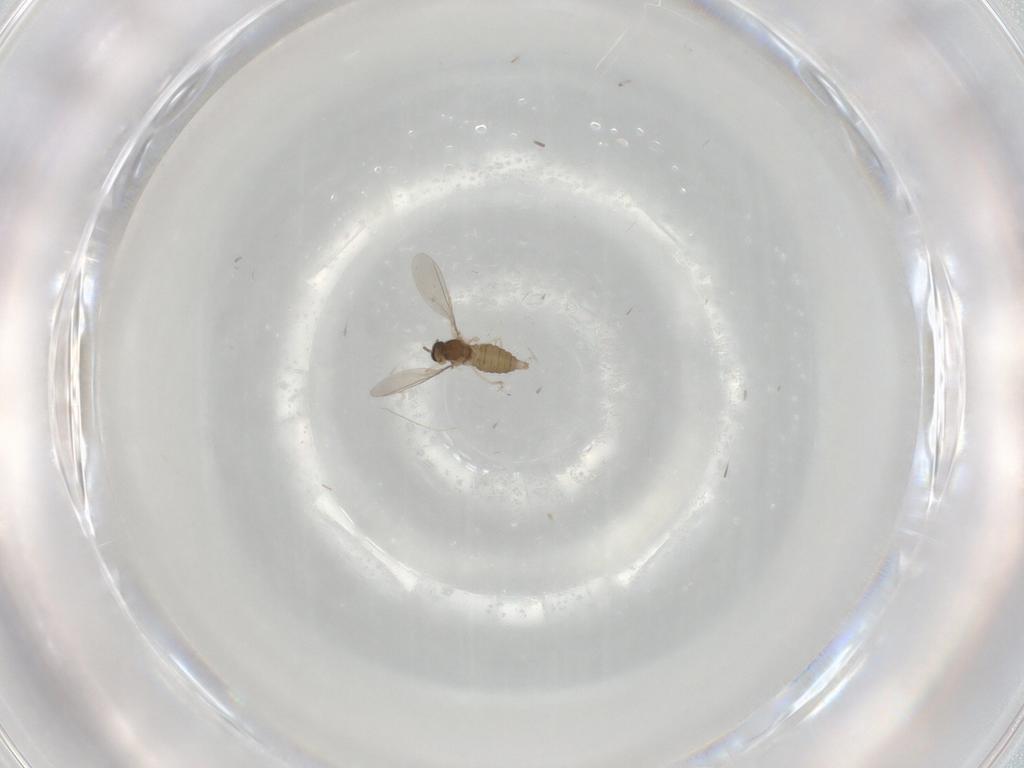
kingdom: Animalia
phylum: Arthropoda
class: Insecta
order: Diptera
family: Cecidomyiidae
